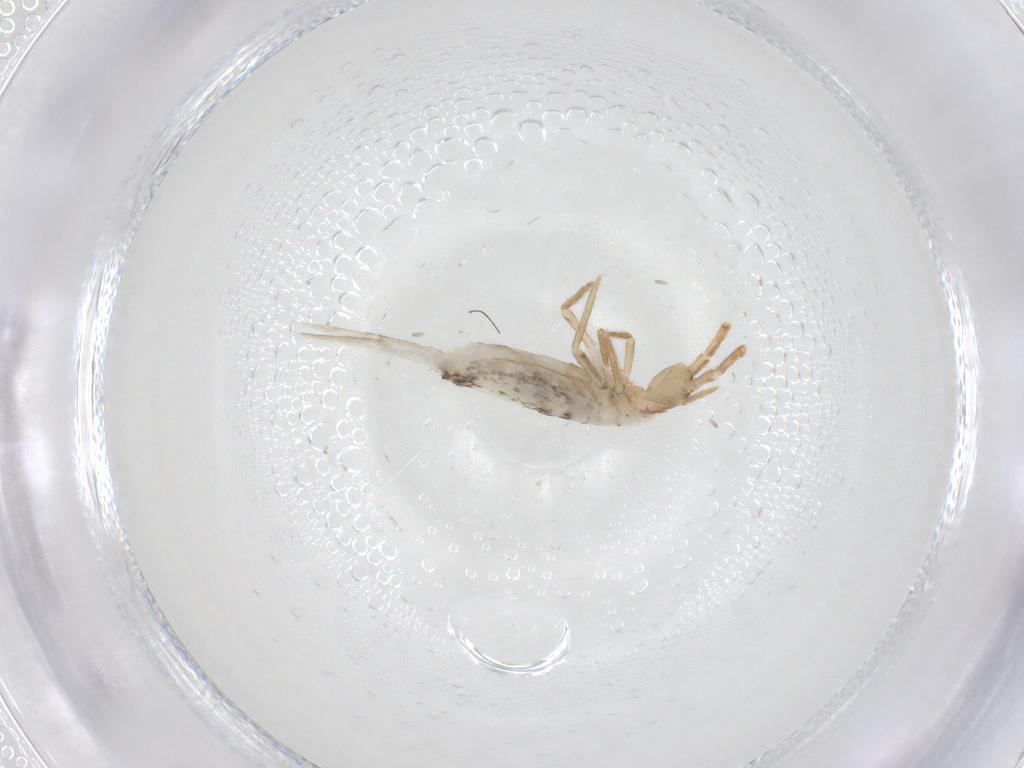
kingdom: Animalia
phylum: Arthropoda
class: Collembola
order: Entomobryomorpha
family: Entomobryidae
